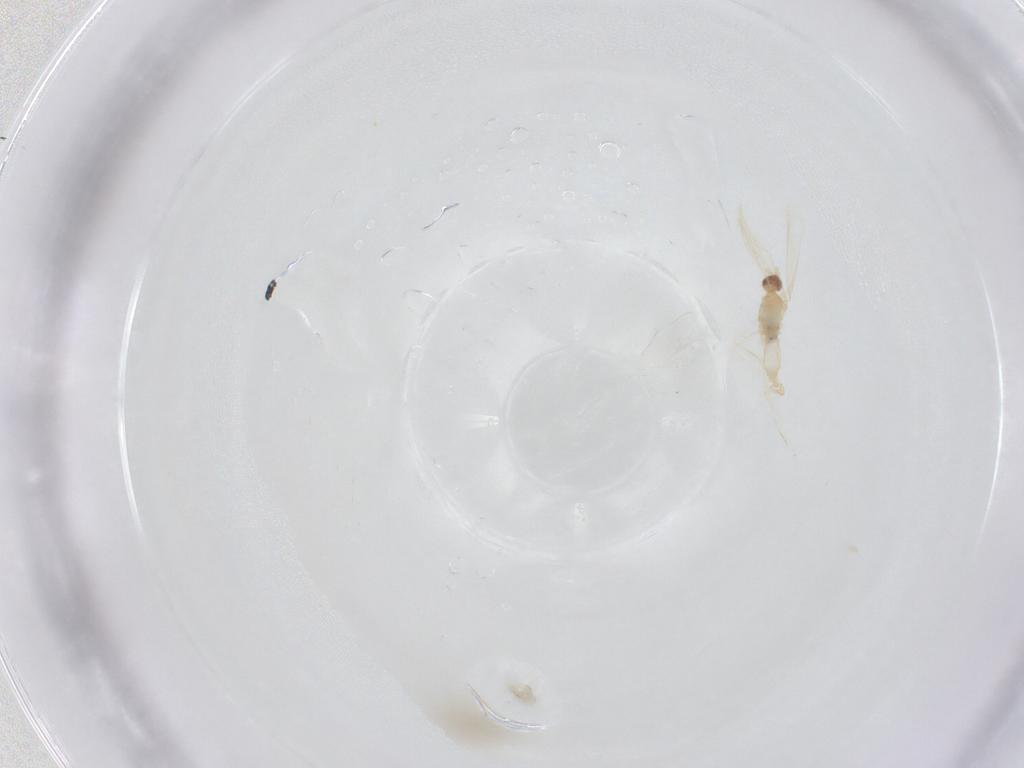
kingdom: Animalia
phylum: Arthropoda
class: Insecta
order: Diptera
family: Cecidomyiidae
